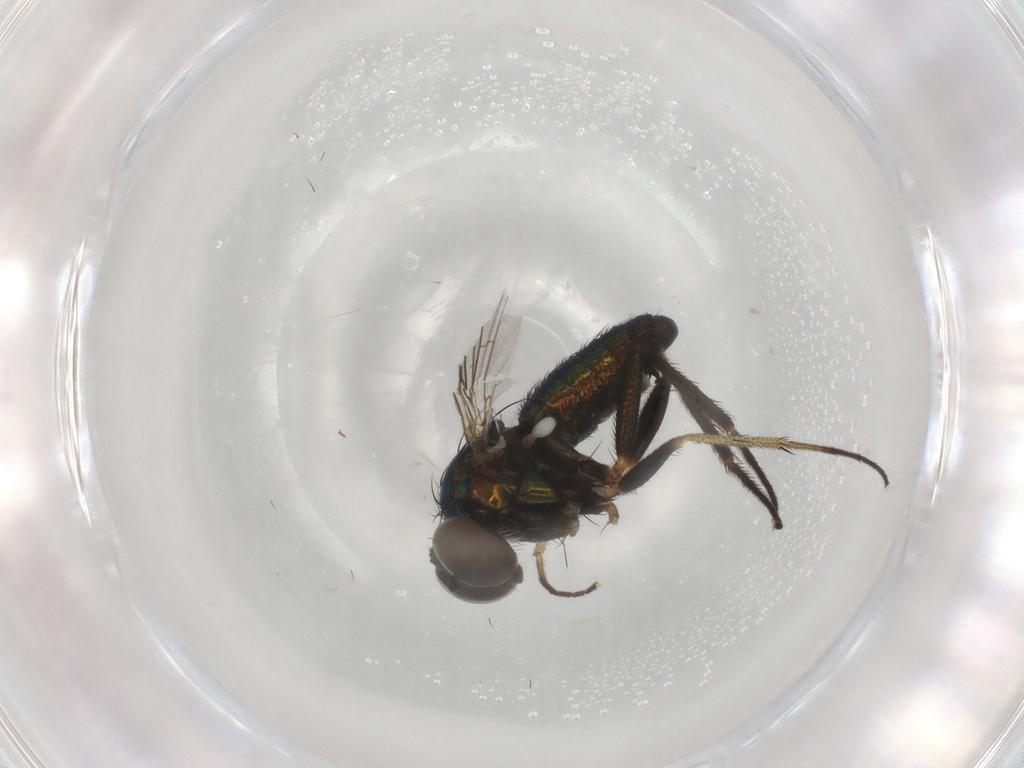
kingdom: Animalia
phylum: Arthropoda
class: Insecta
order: Diptera
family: Dolichopodidae
